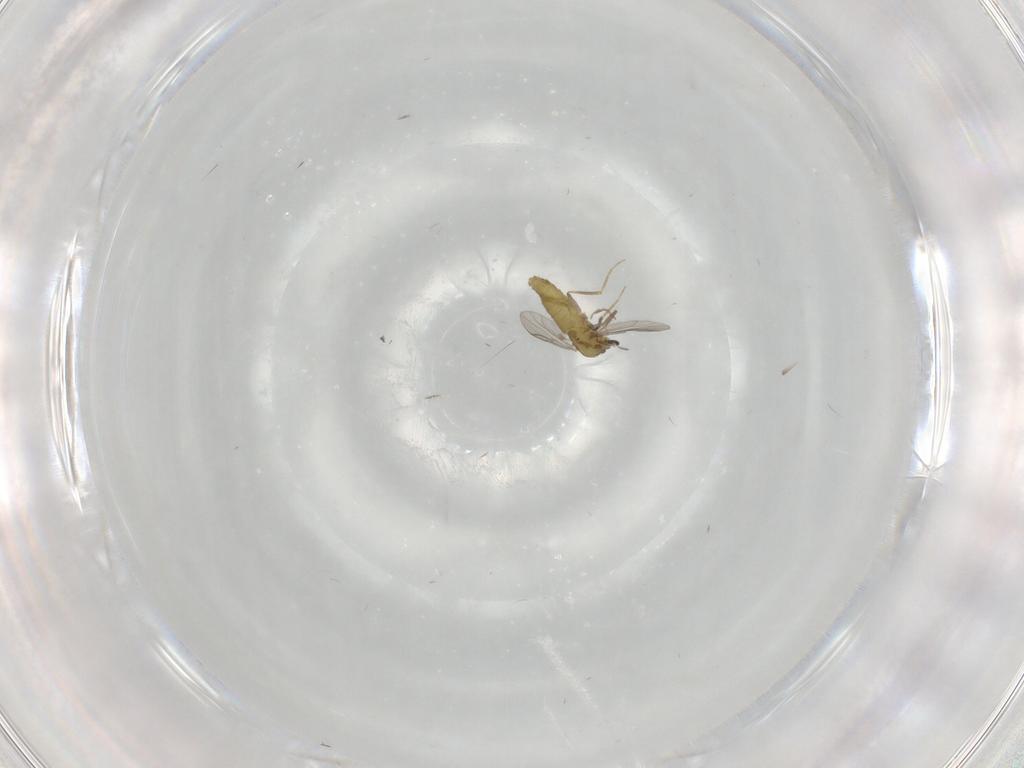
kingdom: Animalia
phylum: Arthropoda
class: Insecta
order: Diptera
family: Chironomidae
